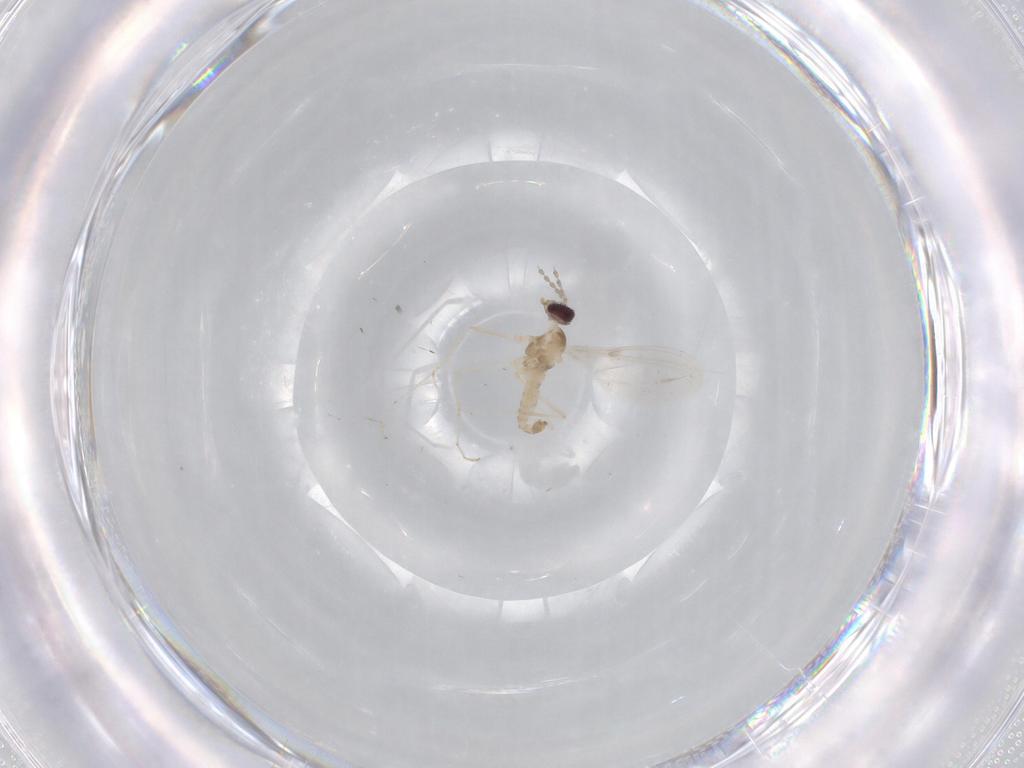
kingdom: Animalia
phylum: Arthropoda
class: Insecta
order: Diptera
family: Cecidomyiidae
